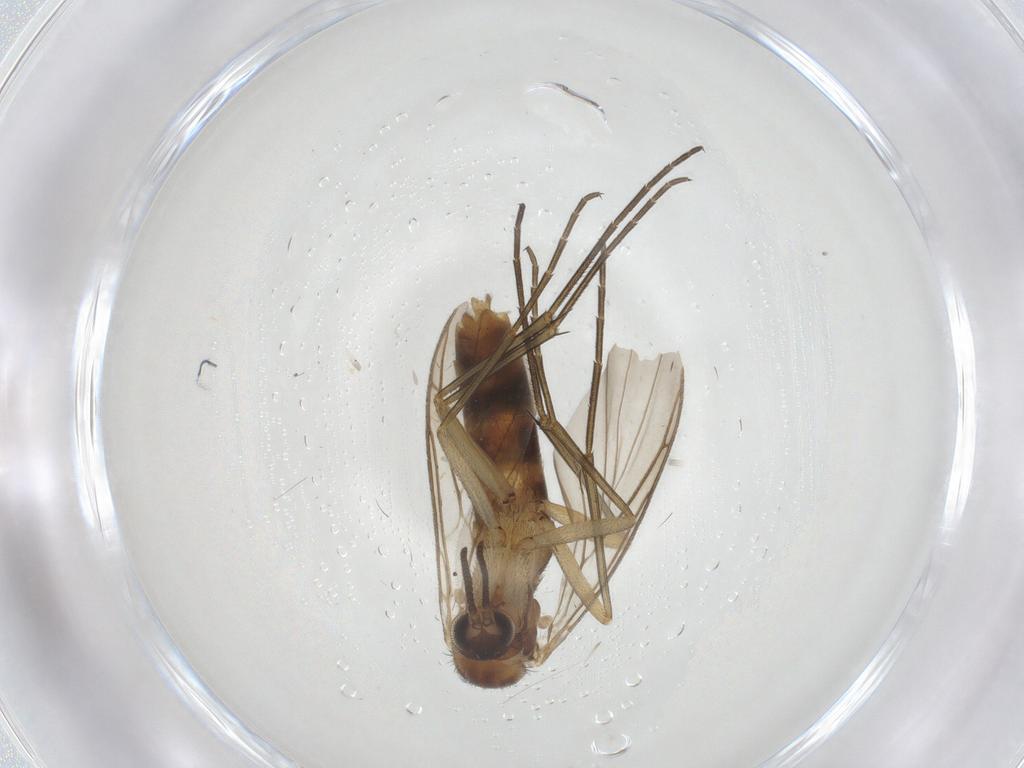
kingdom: Animalia
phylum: Arthropoda
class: Insecta
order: Diptera
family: Keroplatidae
